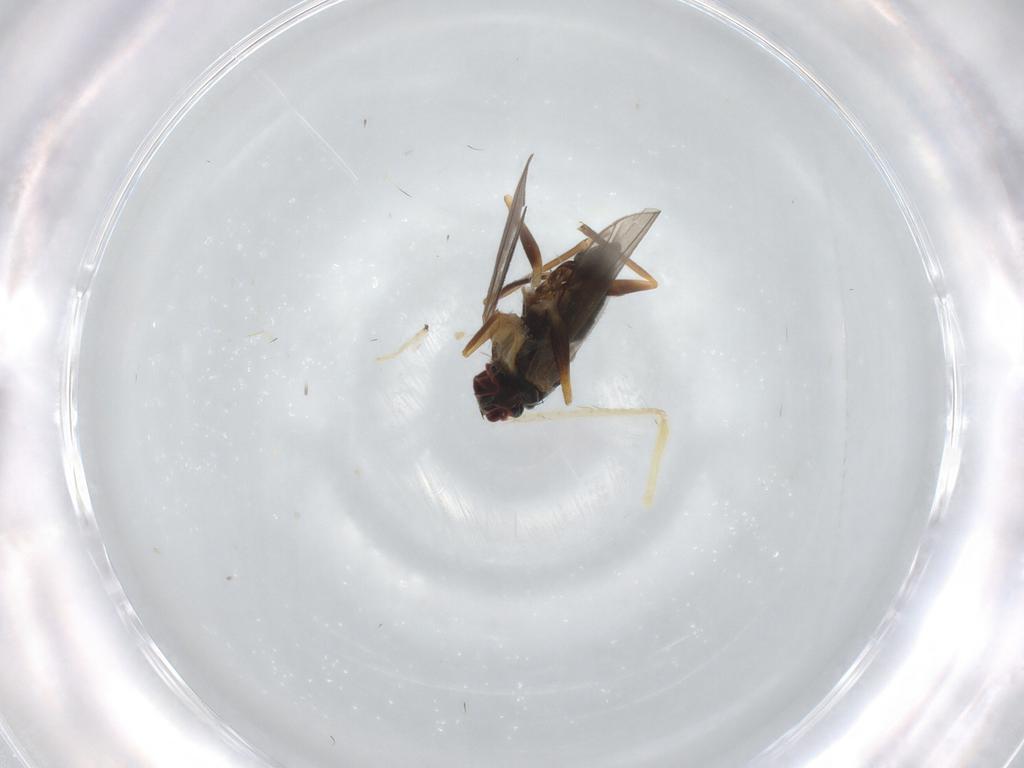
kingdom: Animalia
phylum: Arthropoda
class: Insecta
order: Diptera
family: Dolichopodidae
